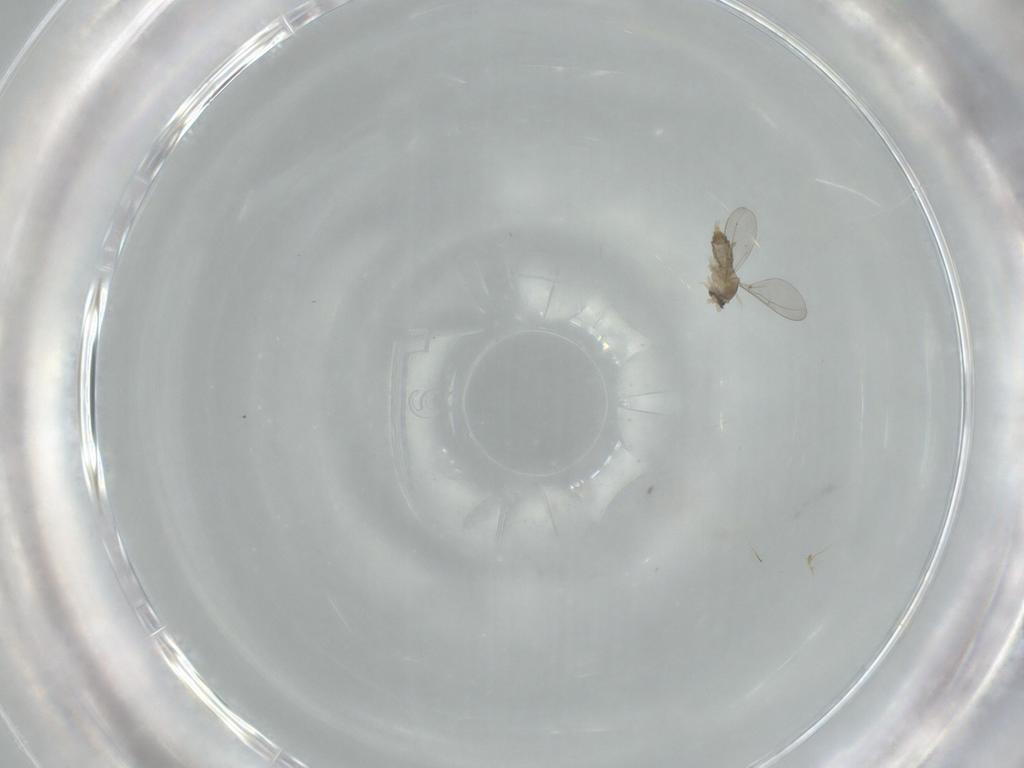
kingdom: Animalia
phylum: Arthropoda
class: Insecta
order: Diptera
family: Cecidomyiidae
